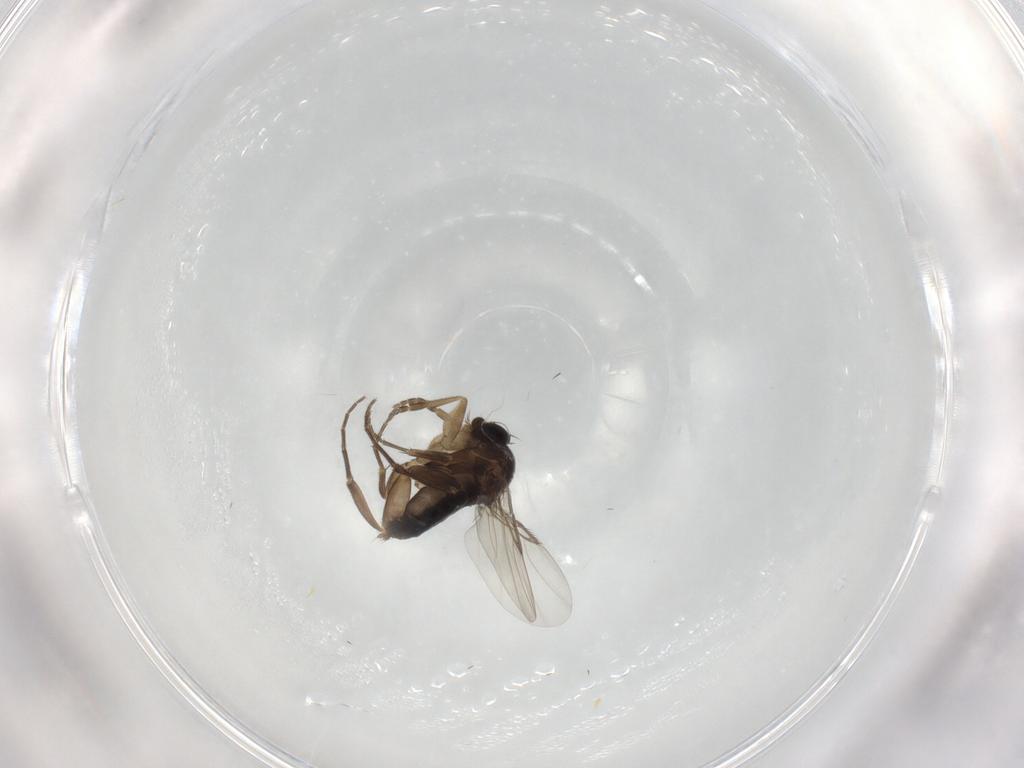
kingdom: Animalia
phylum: Arthropoda
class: Insecta
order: Diptera
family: Phoridae
